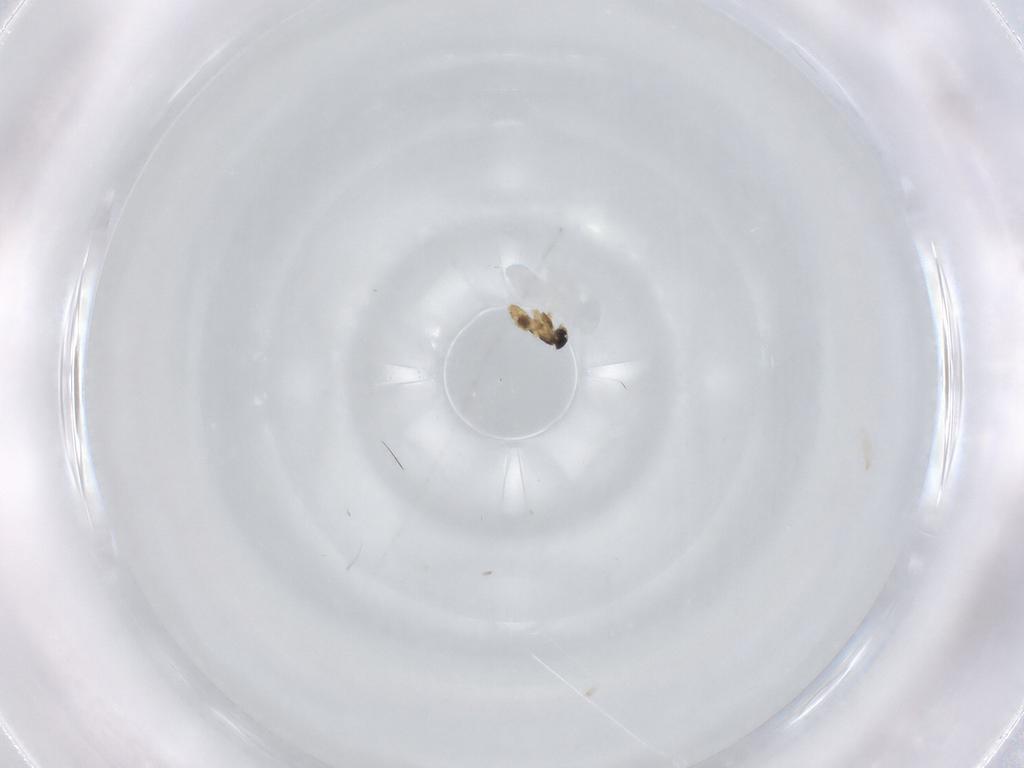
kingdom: Animalia
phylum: Arthropoda
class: Insecta
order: Diptera
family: Cecidomyiidae
